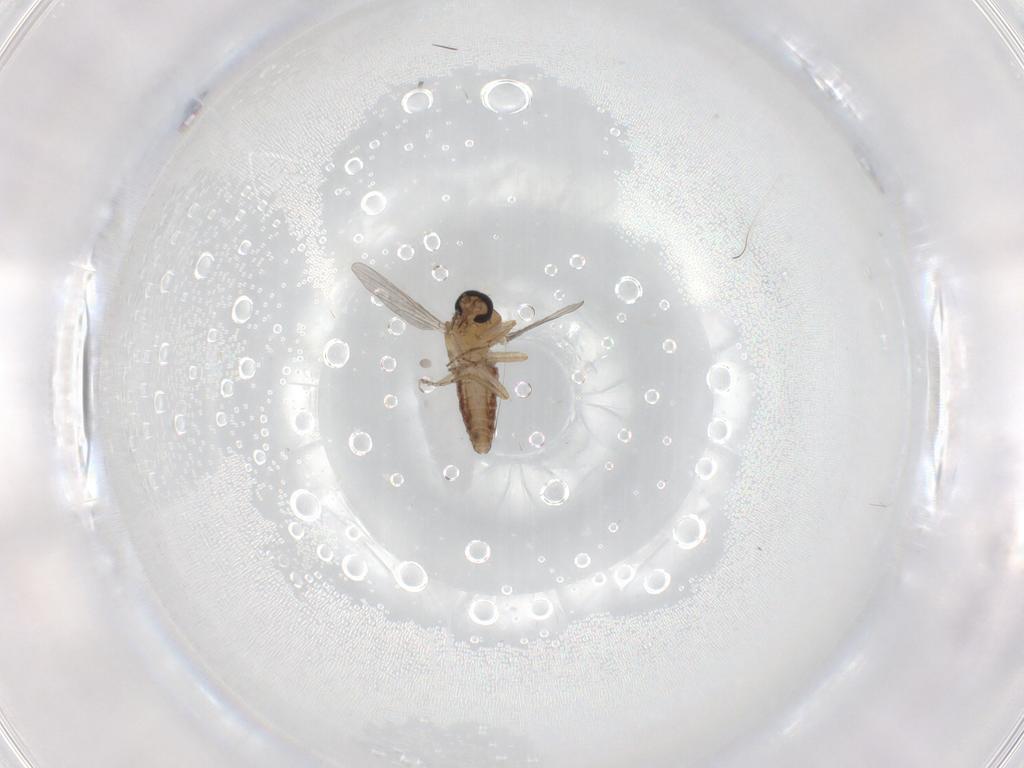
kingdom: Animalia
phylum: Arthropoda
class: Insecta
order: Diptera
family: Ceratopogonidae
